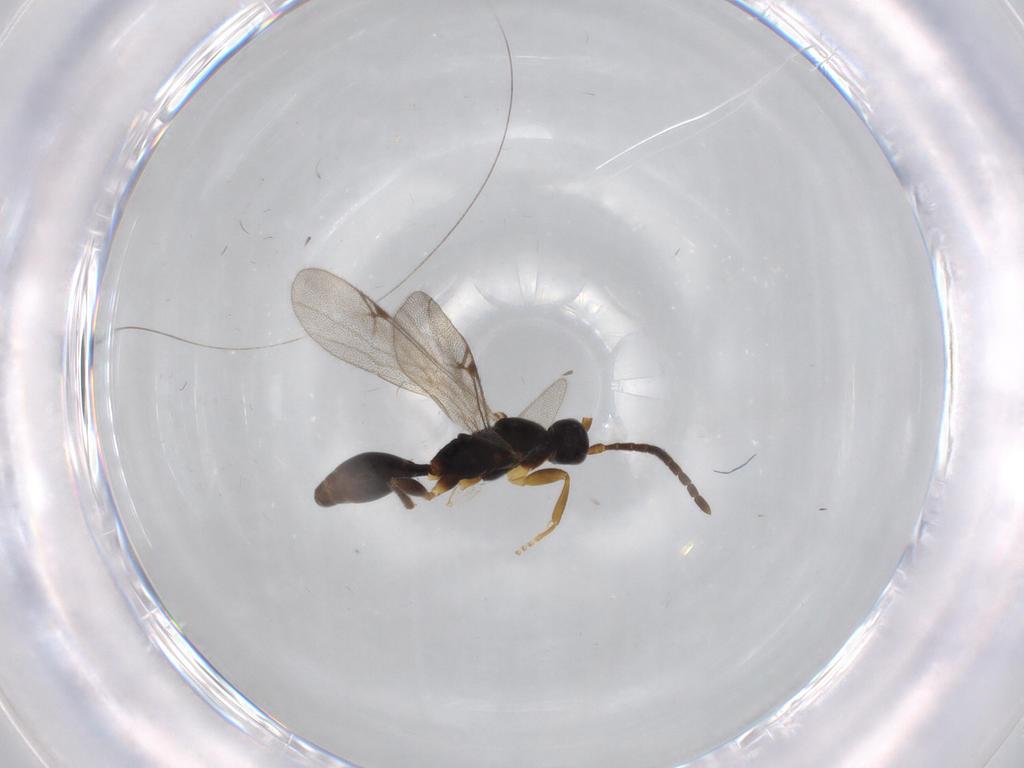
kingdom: Animalia
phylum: Arthropoda
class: Insecta
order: Hymenoptera
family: Proctotrupidae
